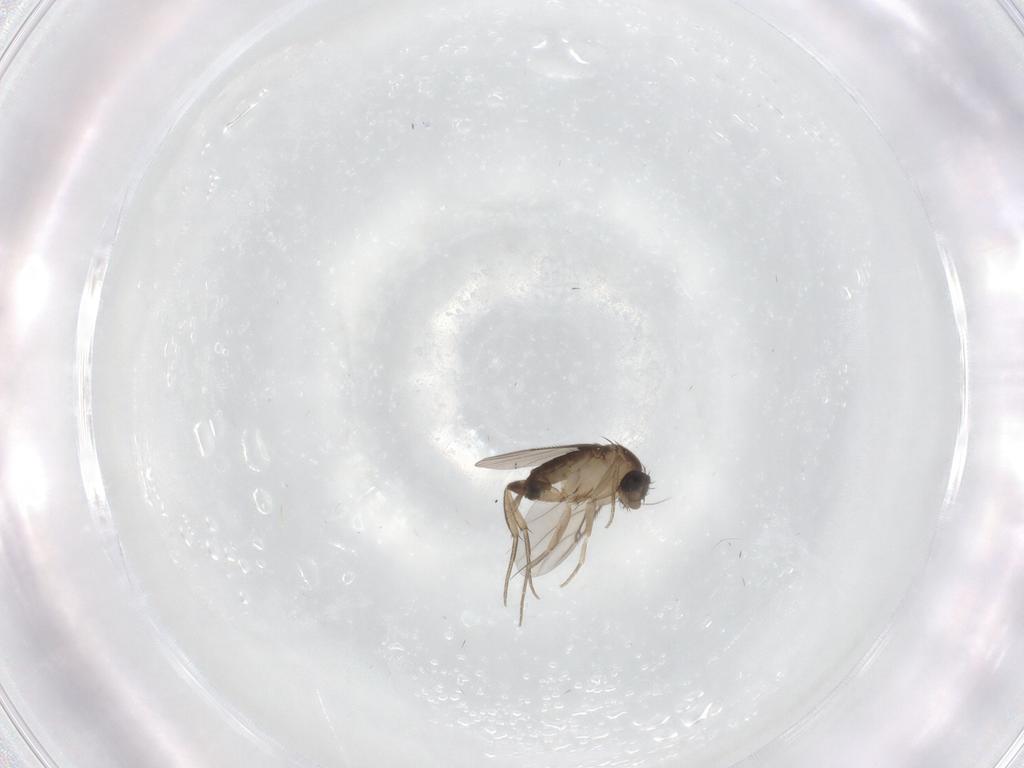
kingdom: Animalia
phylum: Arthropoda
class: Insecta
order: Diptera
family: Phoridae
